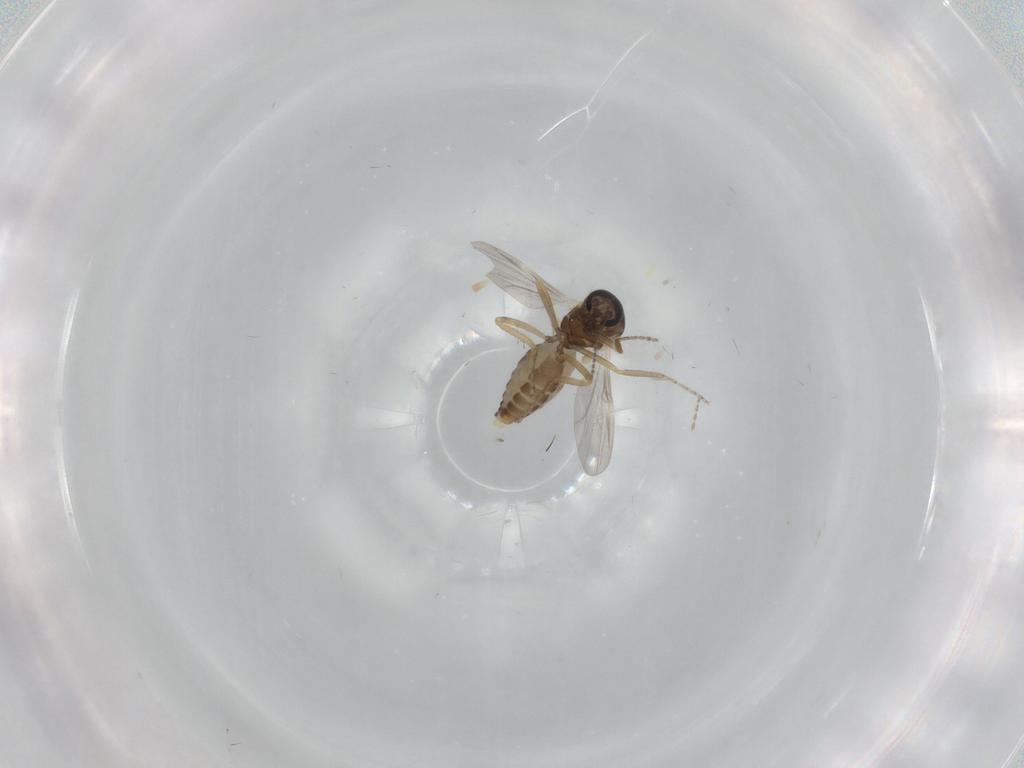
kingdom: Animalia
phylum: Arthropoda
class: Insecta
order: Diptera
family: Ceratopogonidae
